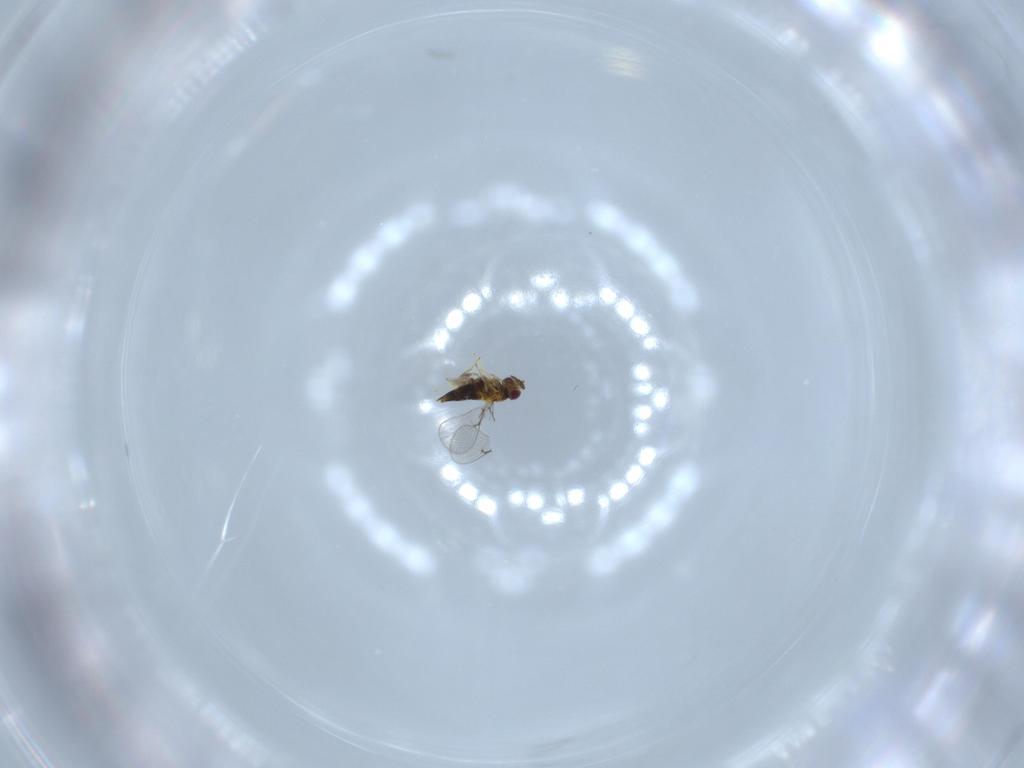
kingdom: Animalia
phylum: Arthropoda
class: Insecta
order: Hymenoptera
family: Trichogrammatidae
